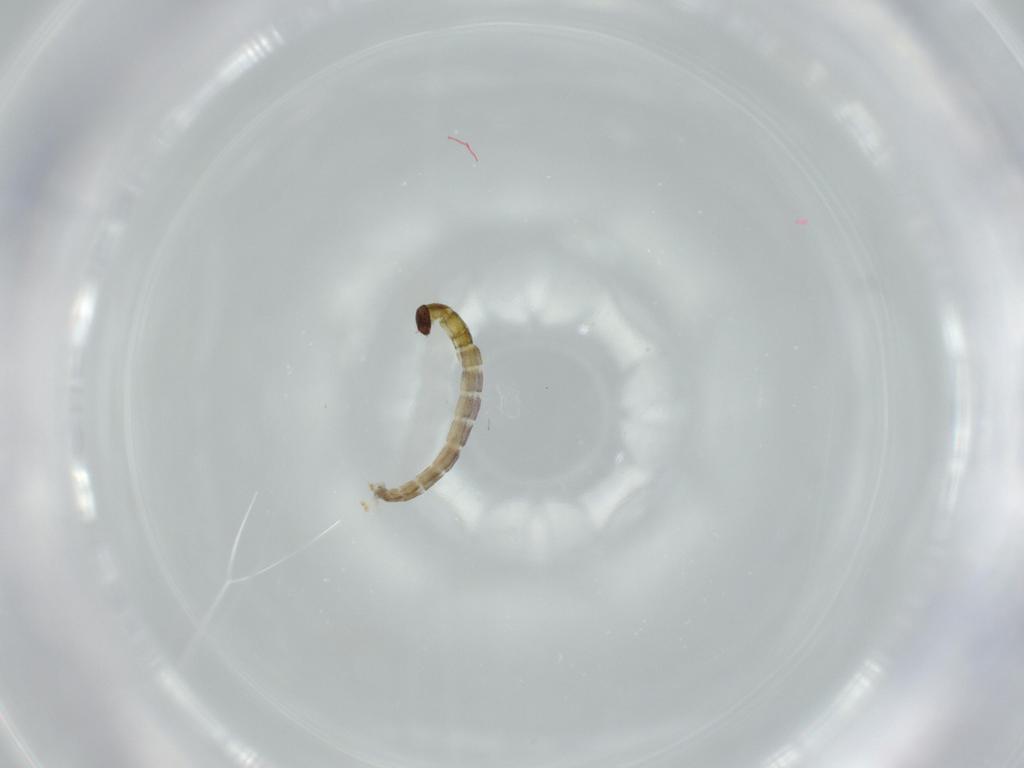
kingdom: Animalia
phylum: Arthropoda
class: Insecta
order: Diptera
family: Chironomidae
